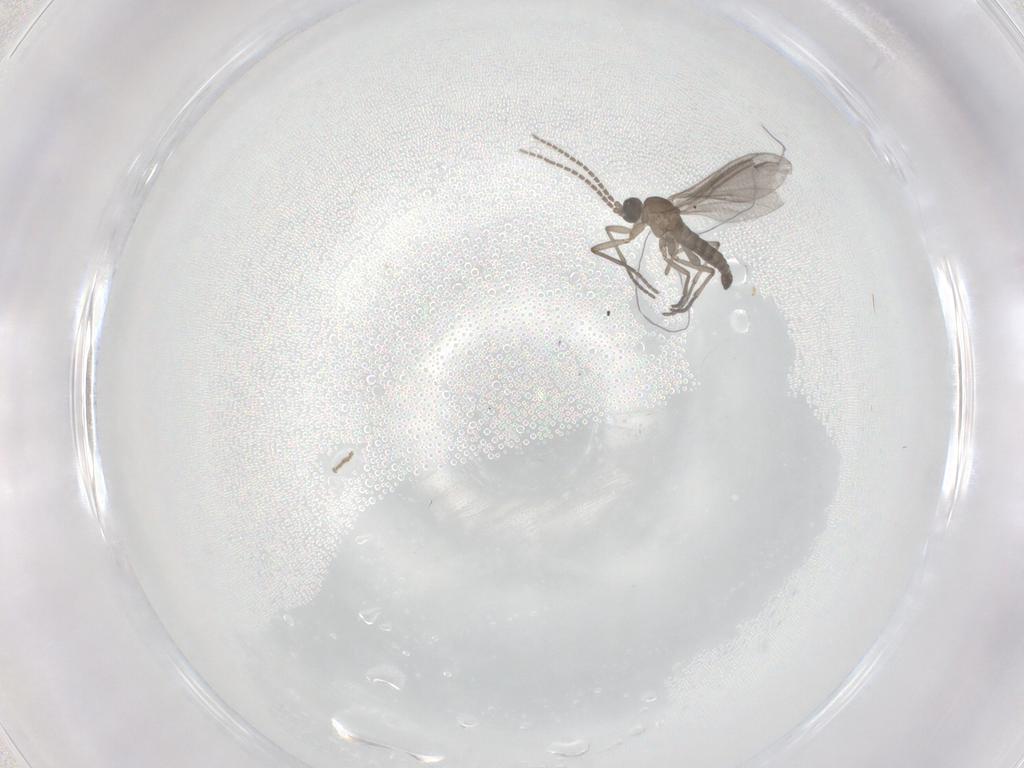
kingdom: Animalia
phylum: Arthropoda
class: Insecta
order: Diptera
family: Sciaridae
